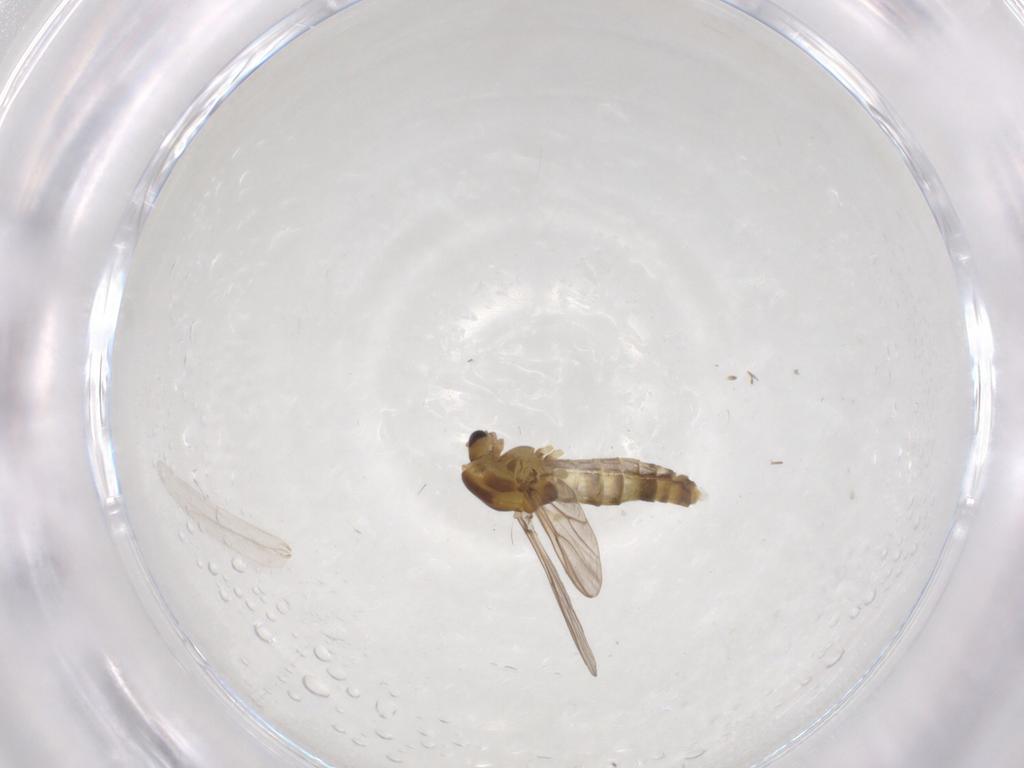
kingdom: Animalia
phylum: Arthropoda
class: Insecta
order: Diptera
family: Chironomidae
